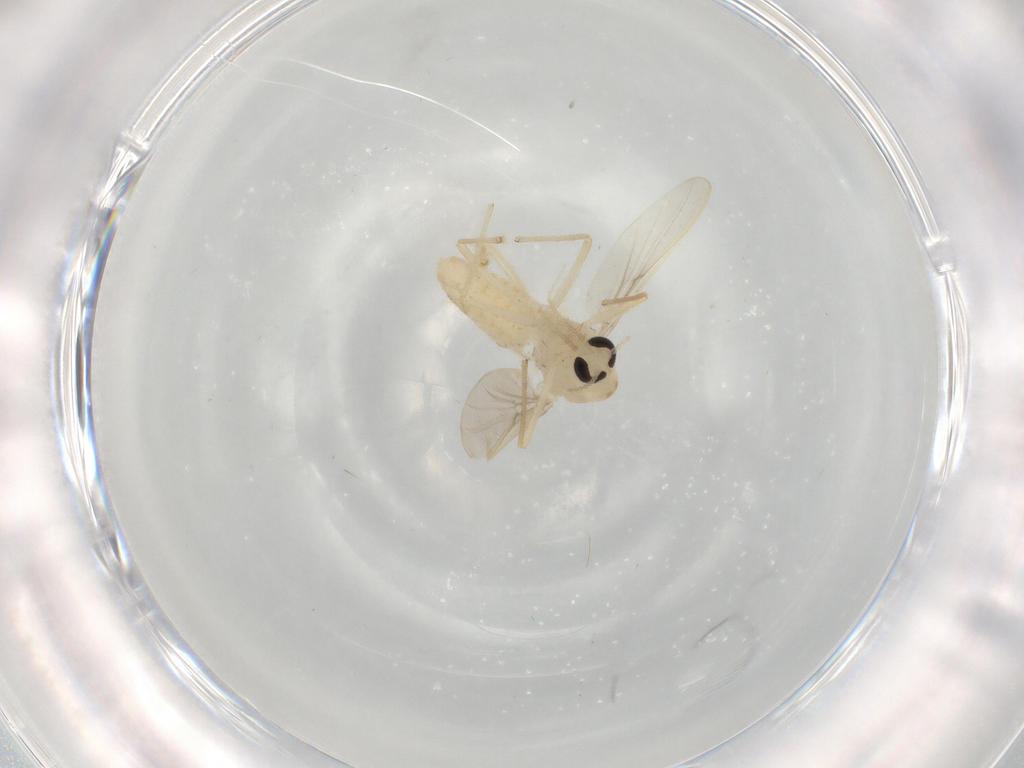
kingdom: Animalia
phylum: Arthropoda
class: Insecta
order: Diptera
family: Chironomidae
